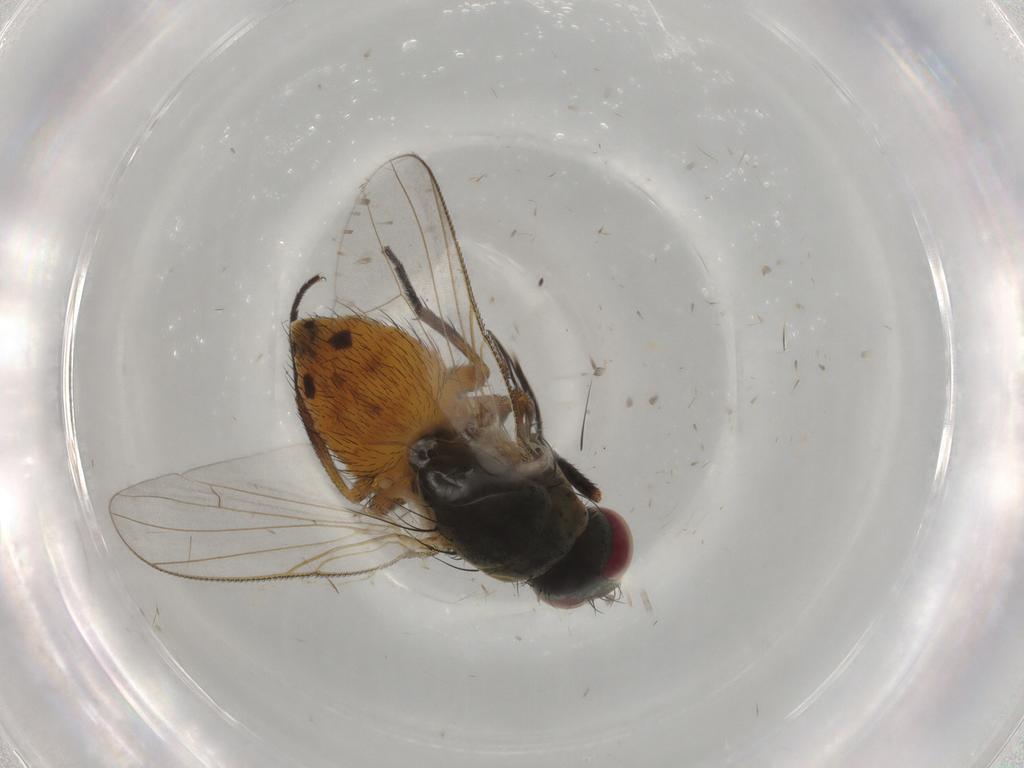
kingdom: Animalia
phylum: Arthropoda
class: Insecta
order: Diptera
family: Muscidae
